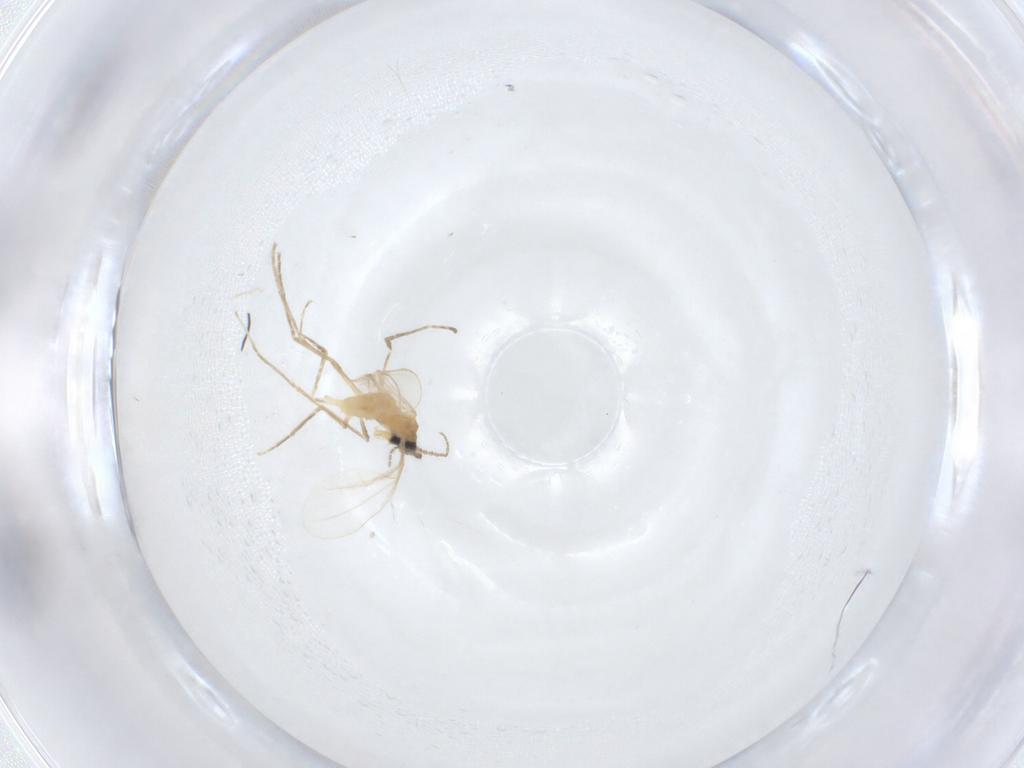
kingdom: Animalia
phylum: Arthropoda
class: Insecta
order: Diptera
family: Cecidomyiidae
